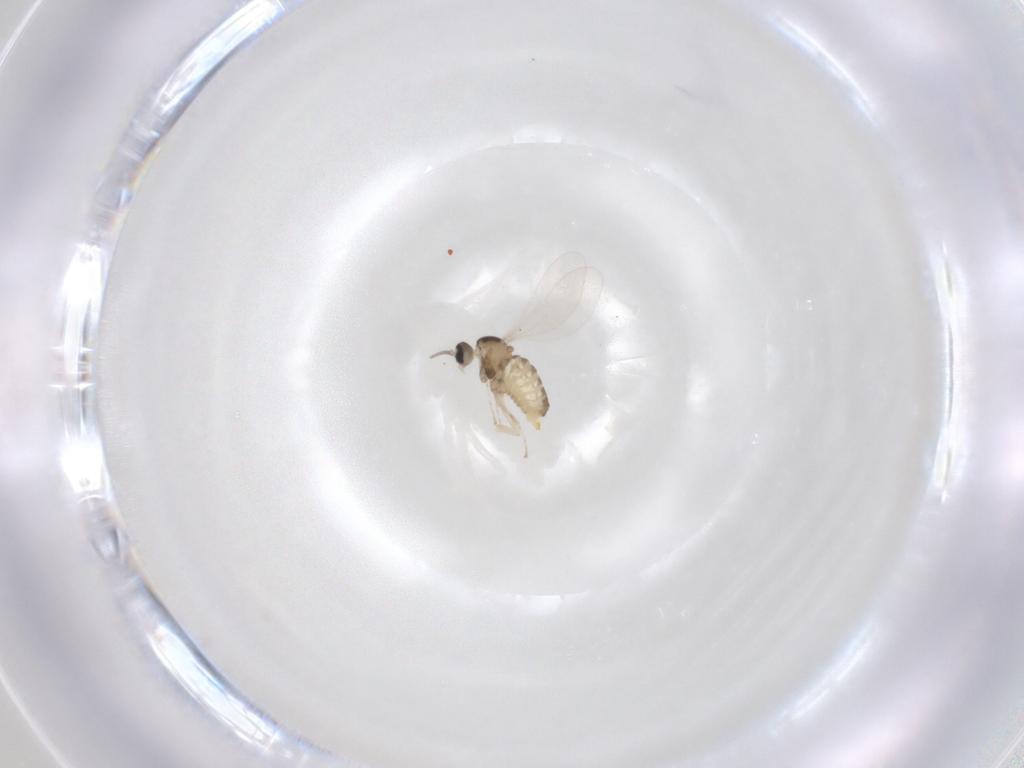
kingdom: Animalia
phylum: Arthropoda
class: Insecta
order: Diptera
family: Cecidomyiidae
